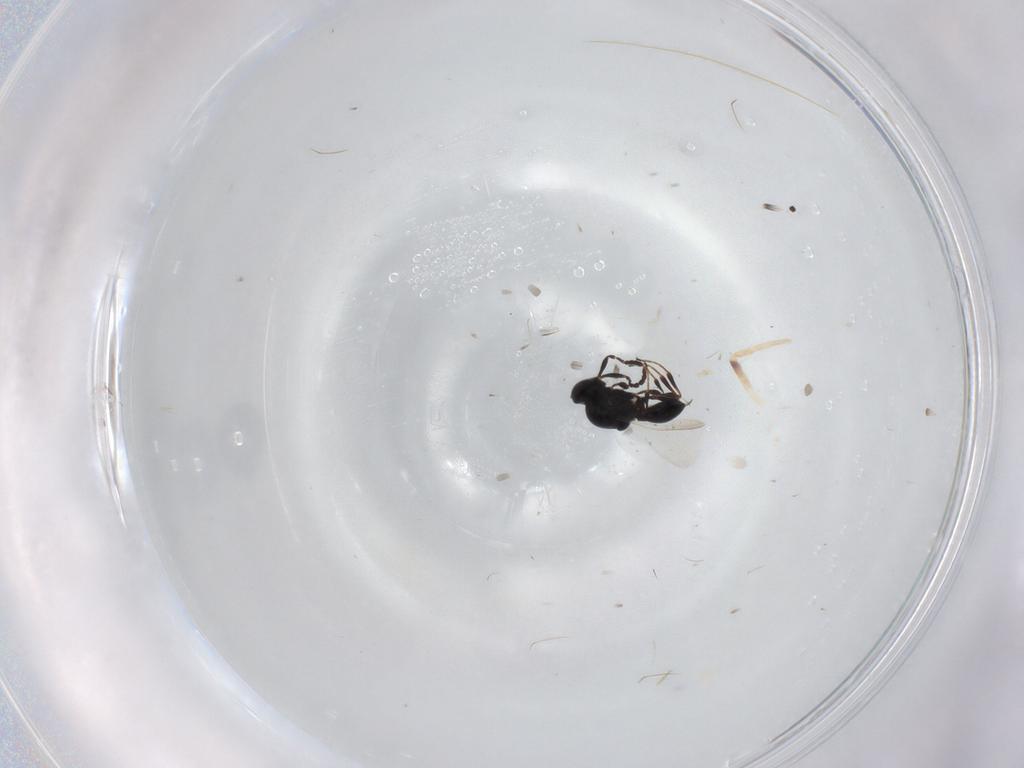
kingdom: Animalia
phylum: Arthropoda
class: Insecta
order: Hymenoptera
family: Platygastridae
